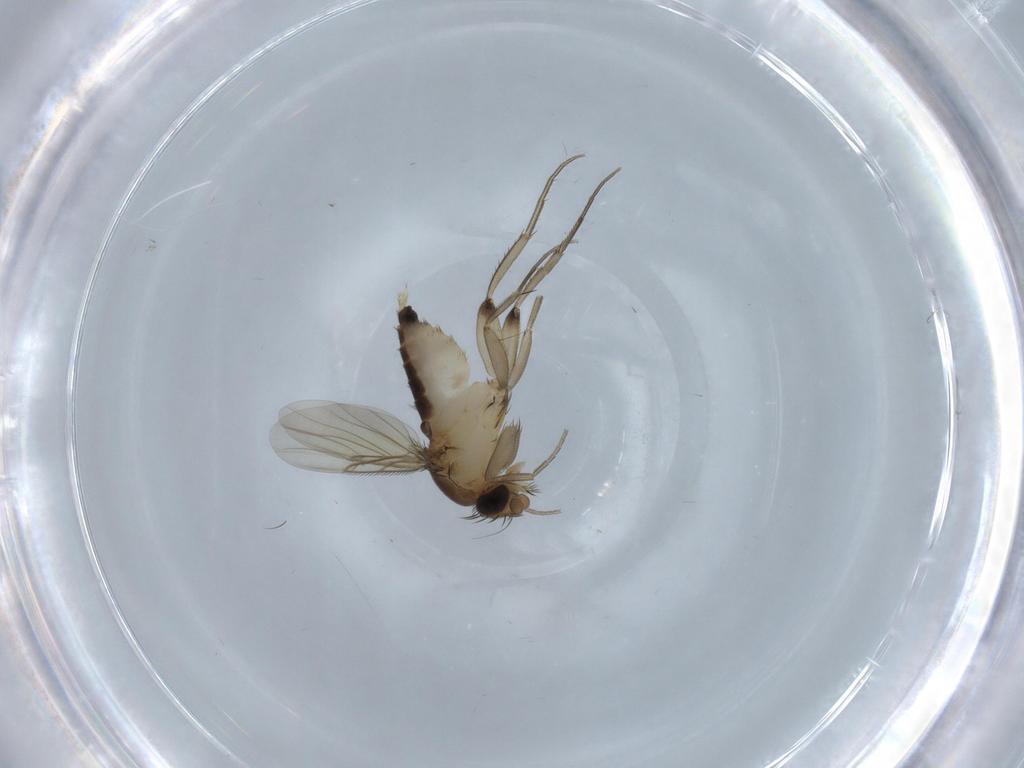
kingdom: Animalia
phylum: Arthropoda
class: Insecta
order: Diptera
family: Phoridae
